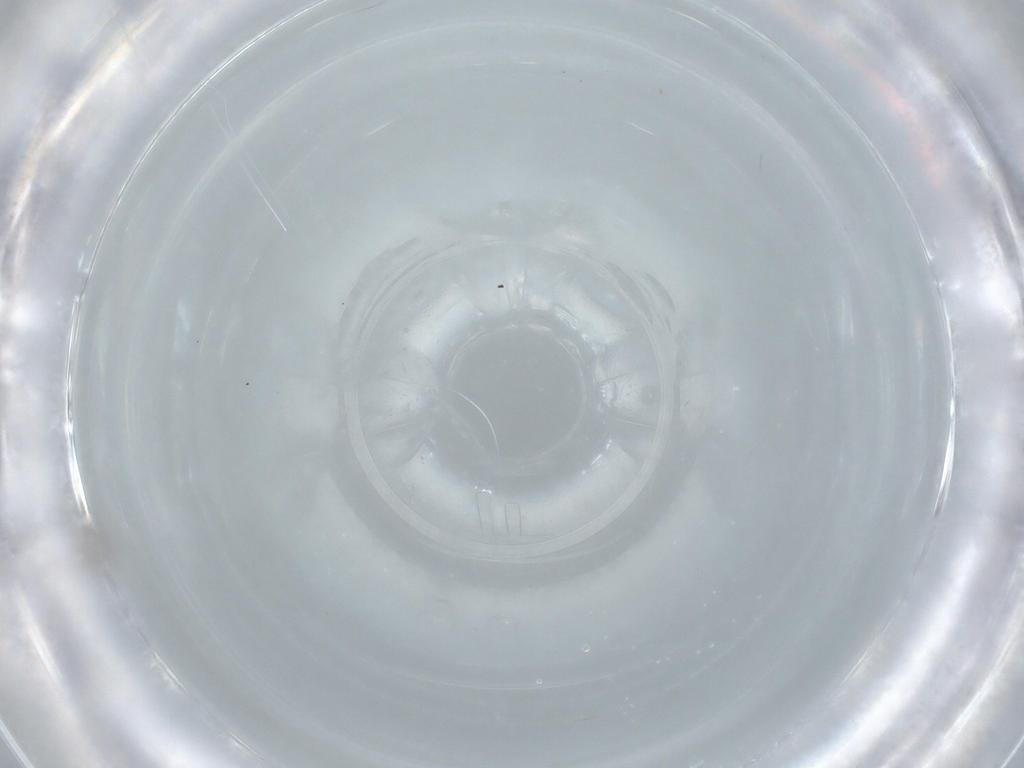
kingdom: Animalia
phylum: Arthropoda
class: Insecta
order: Diptera
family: Cecidomyiidae
